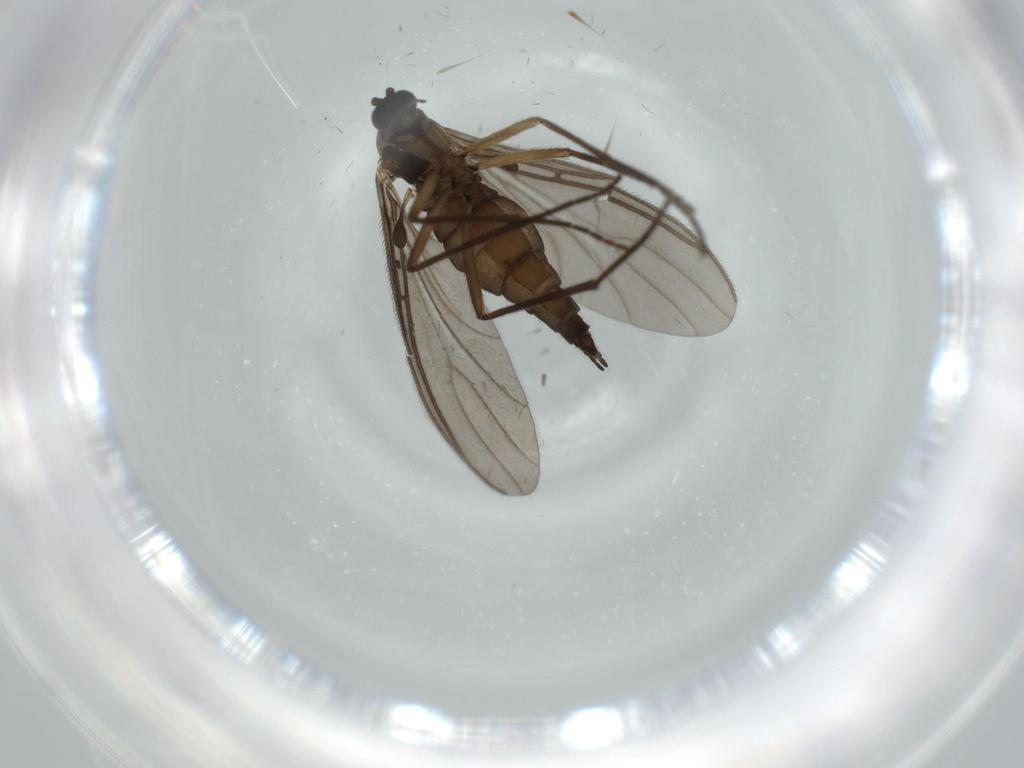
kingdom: Animalia
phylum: Arthropoda
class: Insecta
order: Diptera
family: Sciaridae
